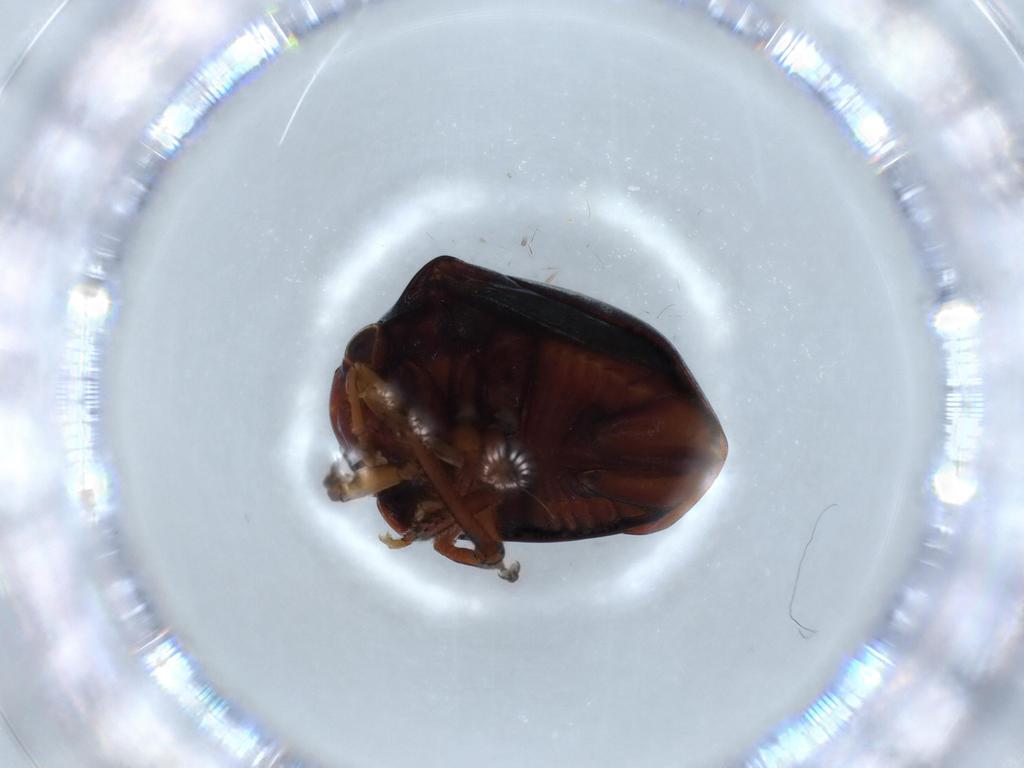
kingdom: Animalia
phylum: Arthropoda
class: Insecta
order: Hemiptera
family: Membracidae
